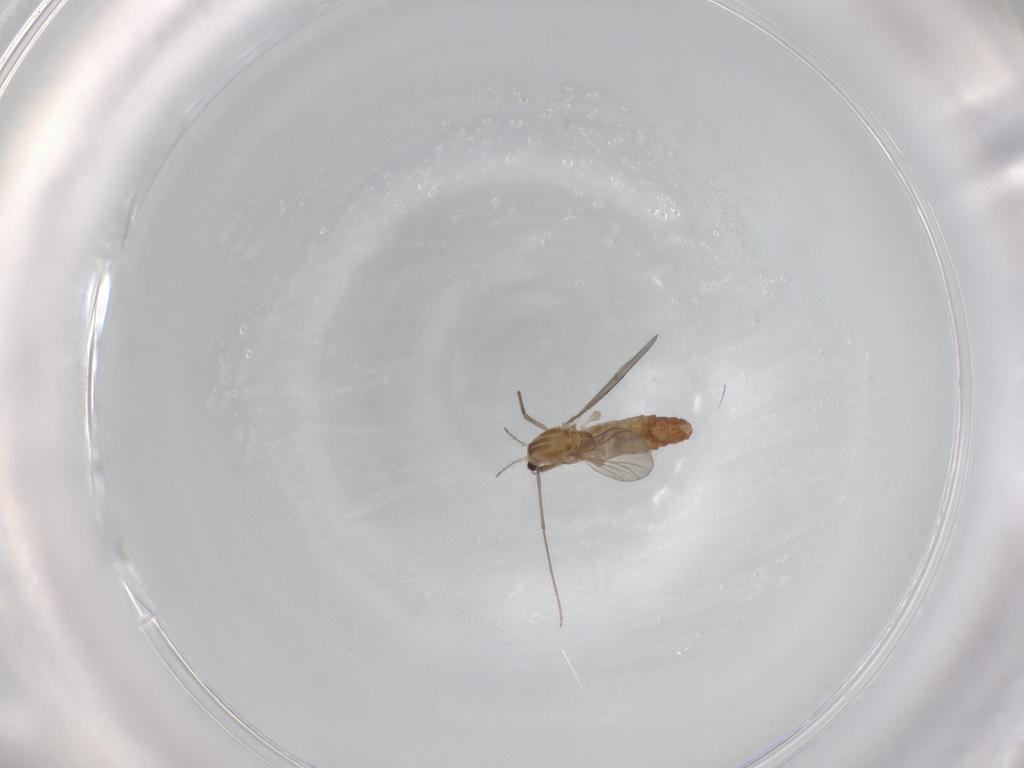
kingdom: Animalia
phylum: Arthropoda
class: Insecta
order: Diptera
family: Chironomidae
